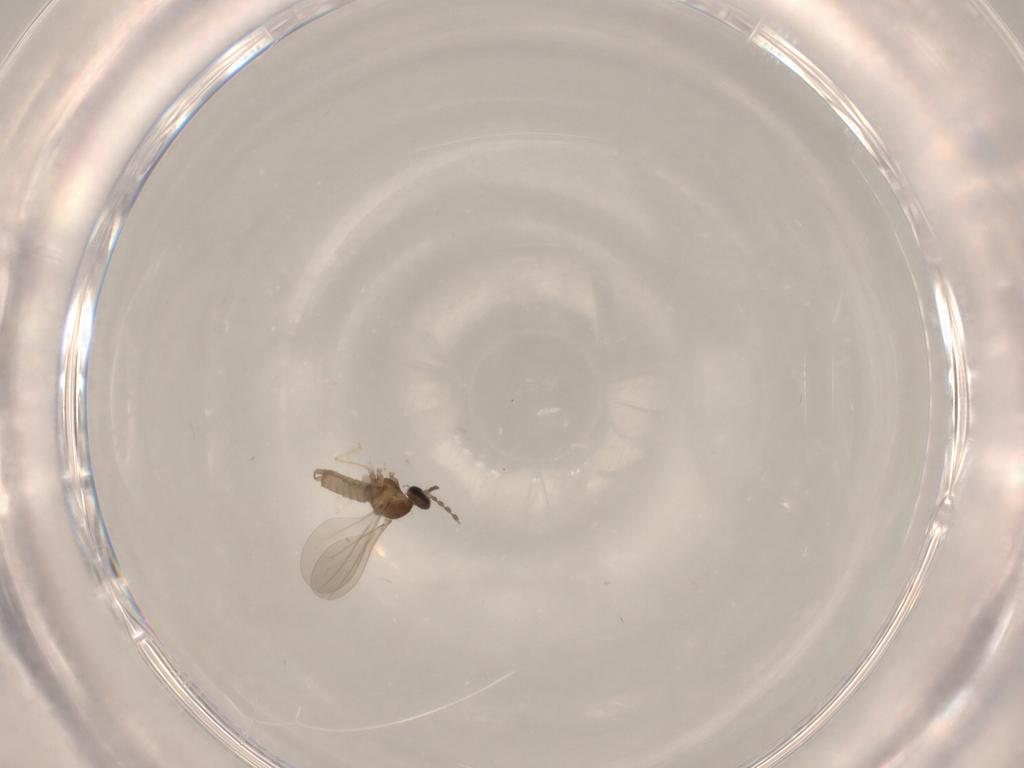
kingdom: Animalia
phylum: Arthropoda
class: Insecta
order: Diptera
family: Cecidomyiidae
